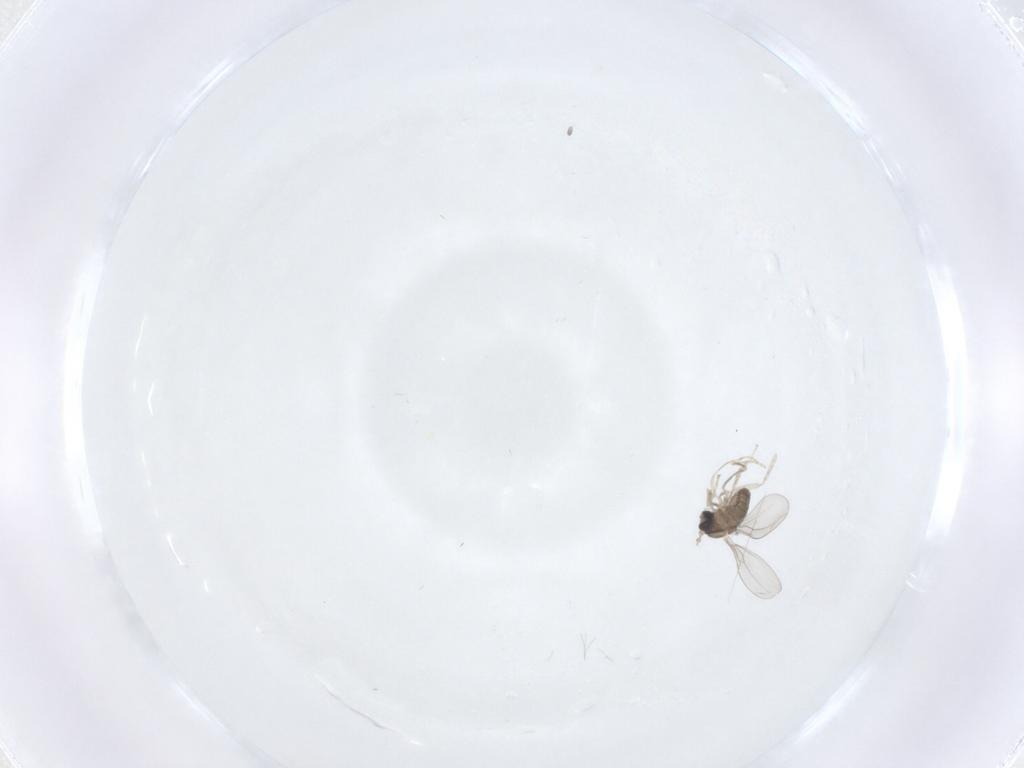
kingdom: Animalia
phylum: Arthropoda
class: Insecta
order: Diptera
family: Phoridae
